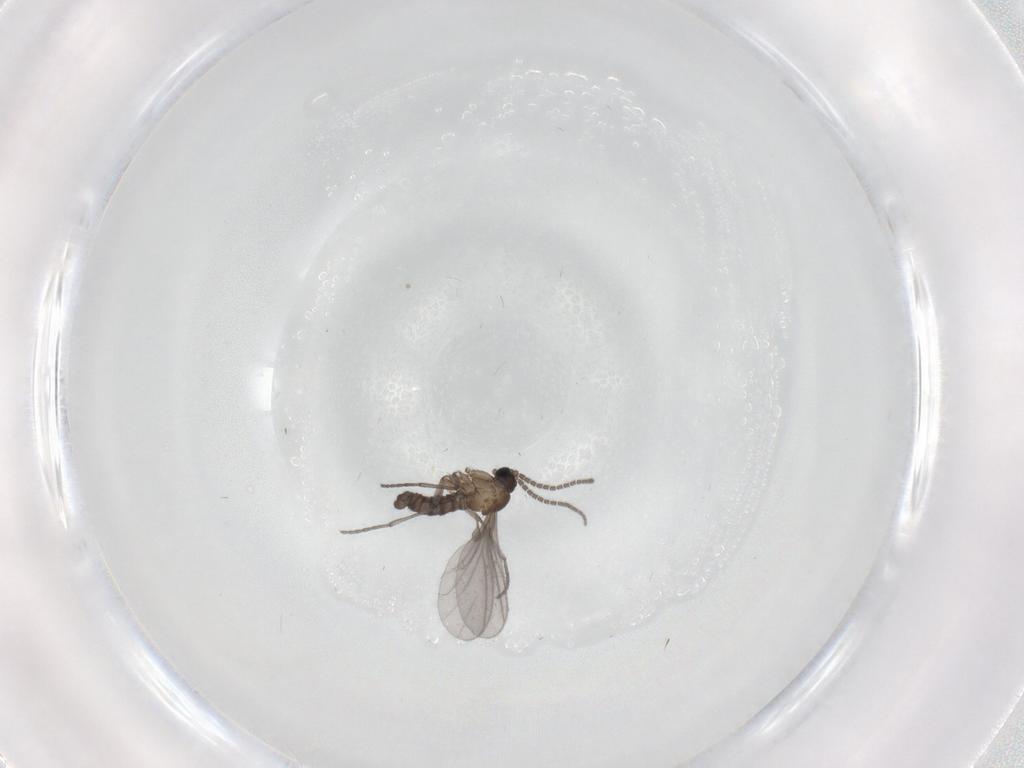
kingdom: Animalia
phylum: Arthropoda
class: Insecta
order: Diptera
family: Sciaridae
